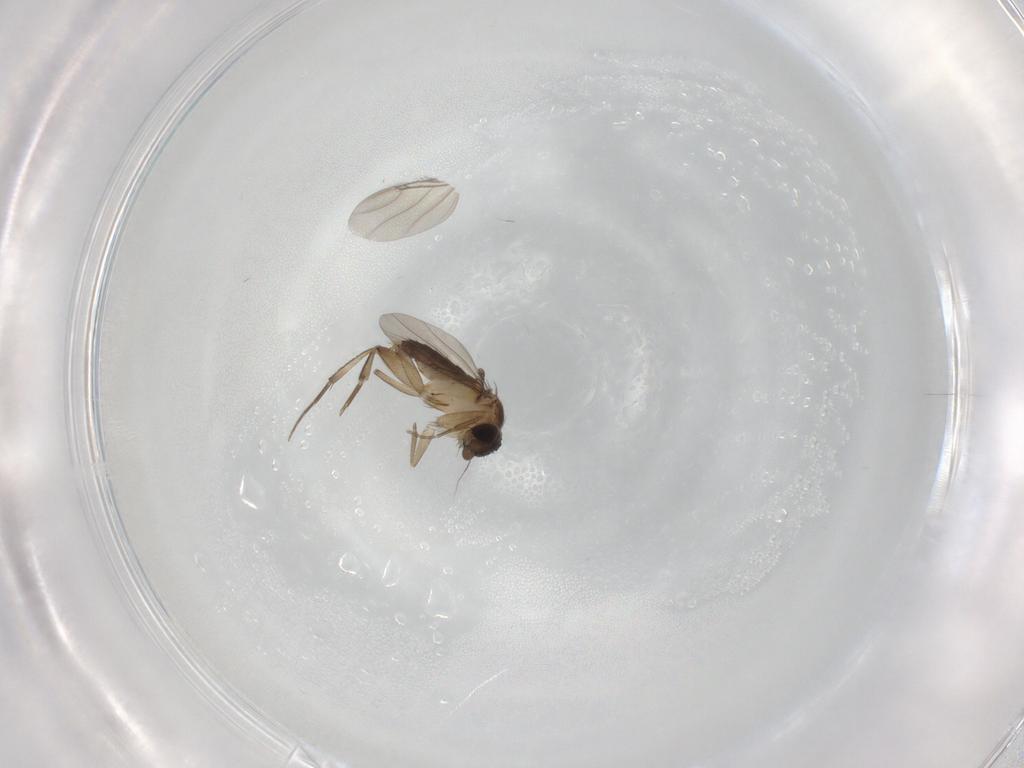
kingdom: Animalia
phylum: Arthropoda
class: Insecta
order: Diptera
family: Phoridae
